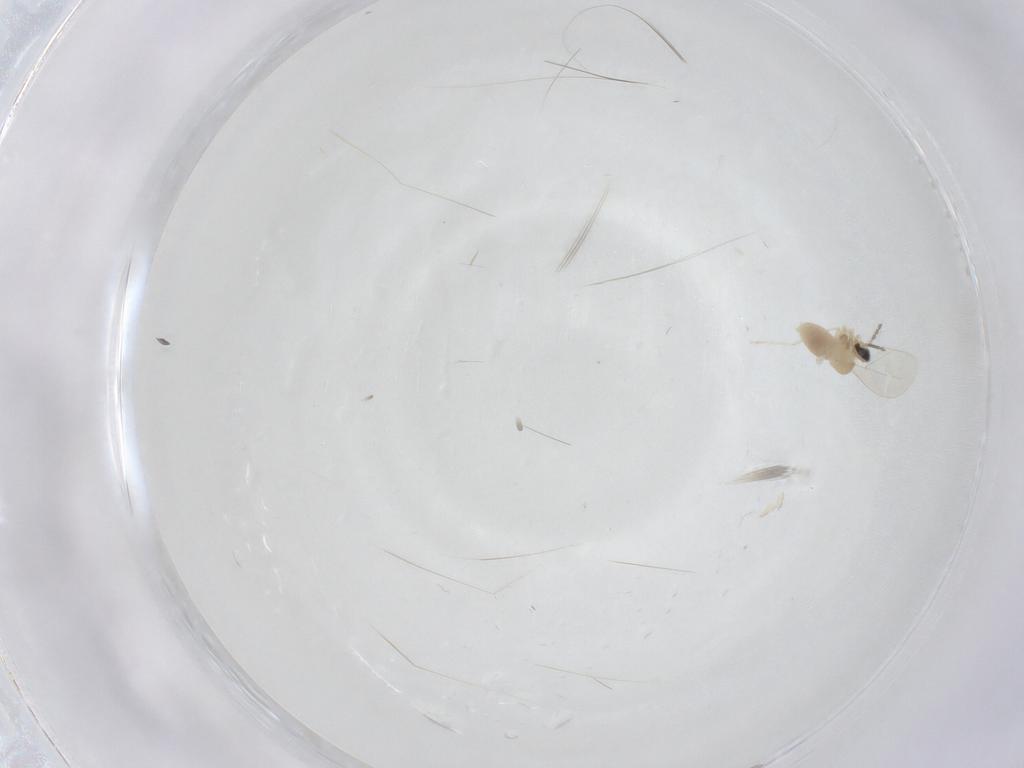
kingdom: Animalia
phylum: Arthropoda
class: Insecta
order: Diptera
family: Cecidomyiidae
